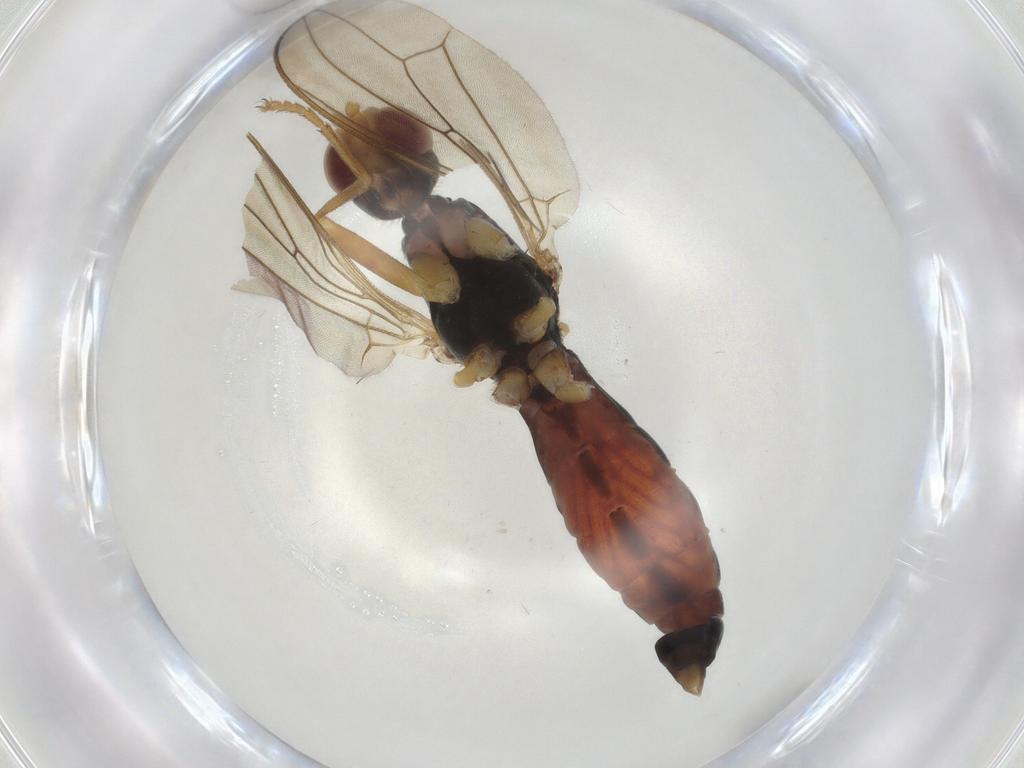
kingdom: Animalia
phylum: Arthropoda
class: Insecta
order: Diptera
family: Micropezidae
